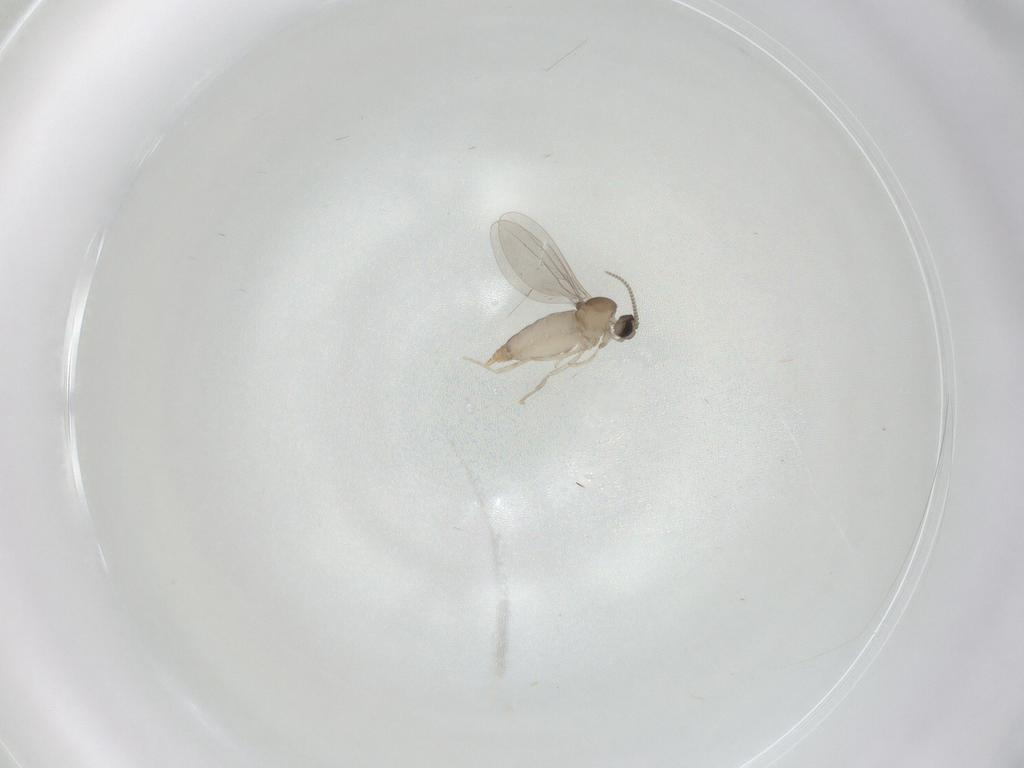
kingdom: Animalia
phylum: Arthropoda
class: Insecta
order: Diptera
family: Cecidomyiidae
